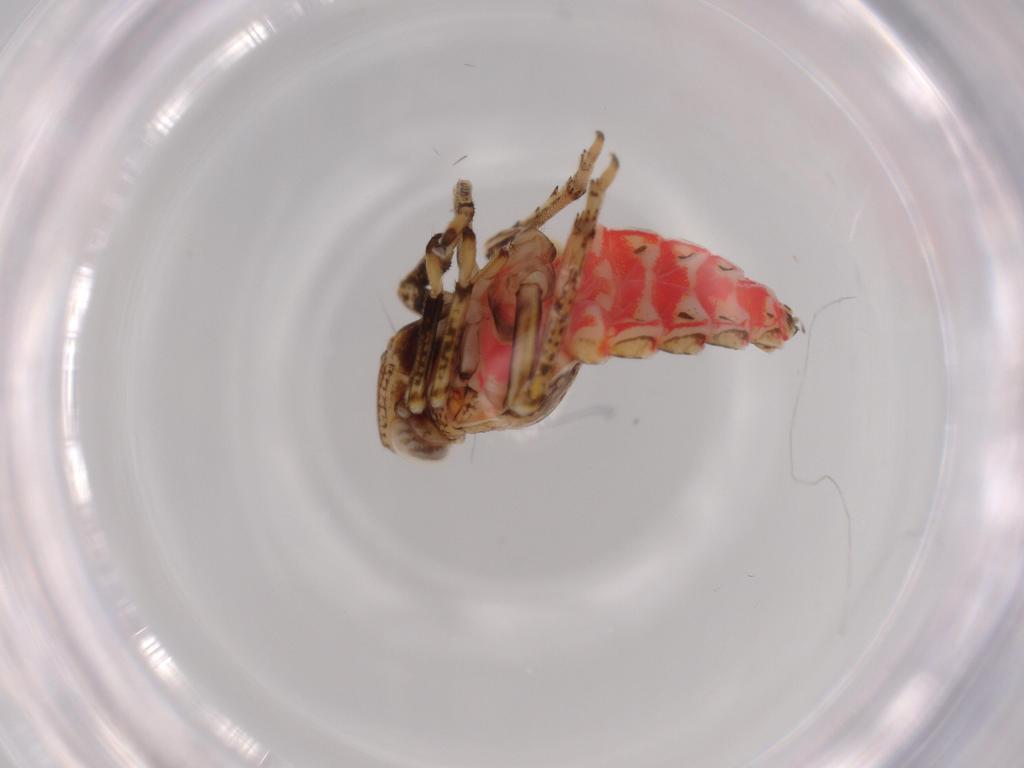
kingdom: Animalia
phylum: Arthropoda
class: Insecta
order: Hemiptera
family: Issidae
